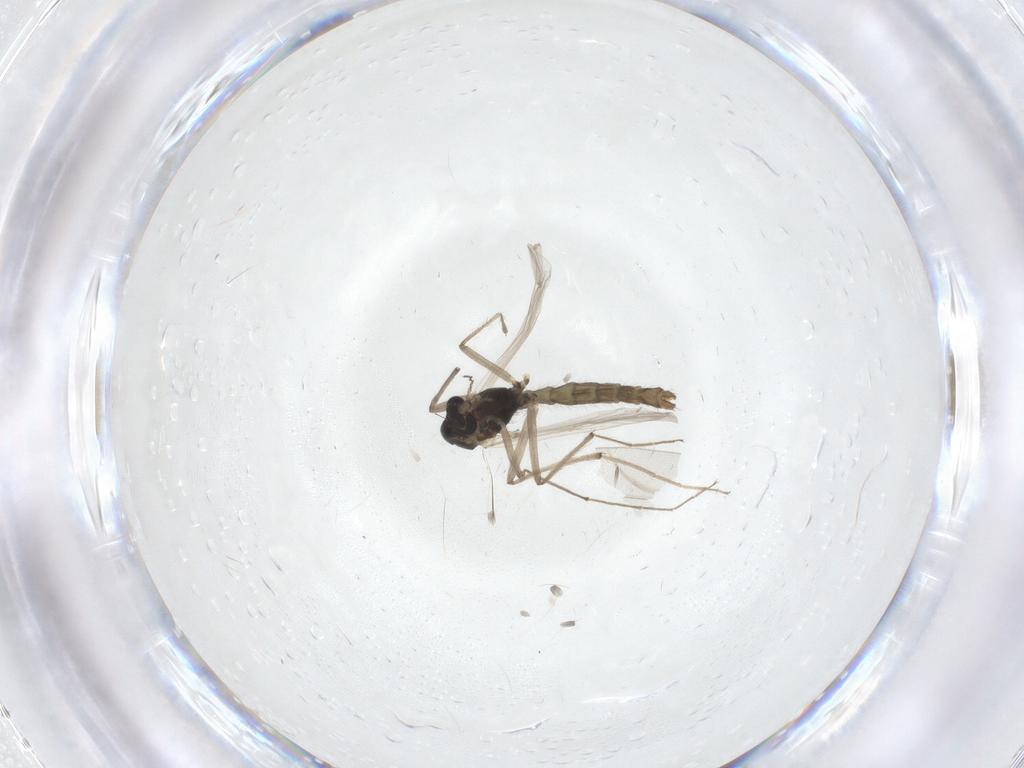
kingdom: Animalia
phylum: Arthropoda
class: Insecta
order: Diptera
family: Chironomidae
